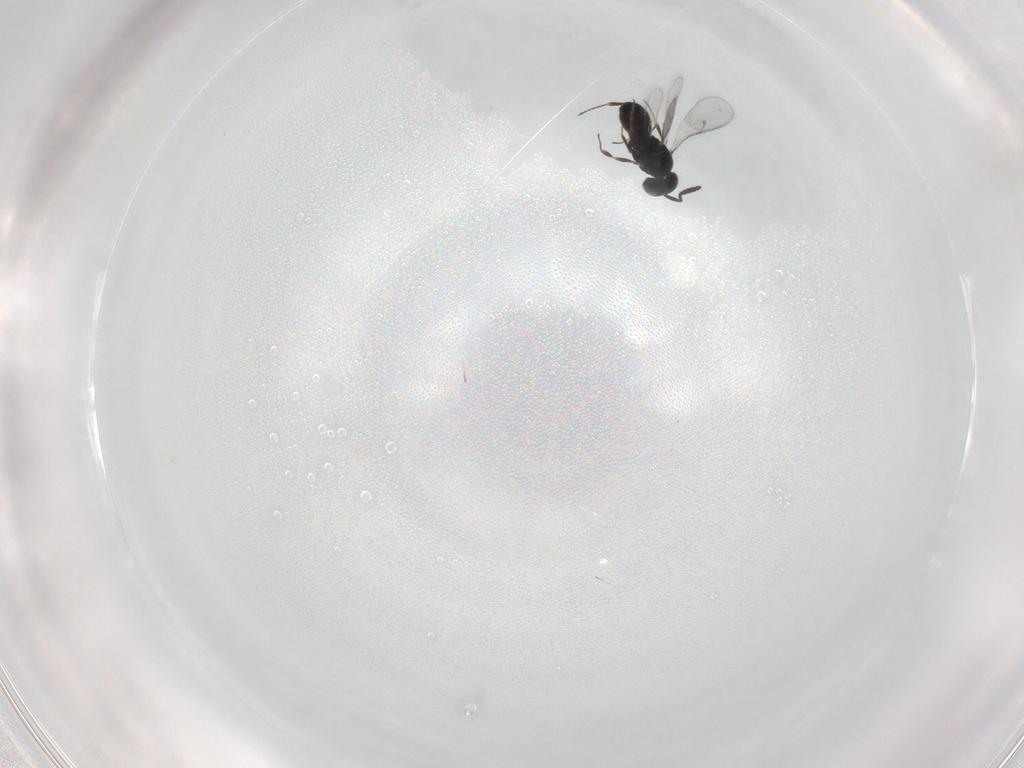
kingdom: Animalia
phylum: Arthropoda
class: Insecta
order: Hymenoptera
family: Scelionidae
